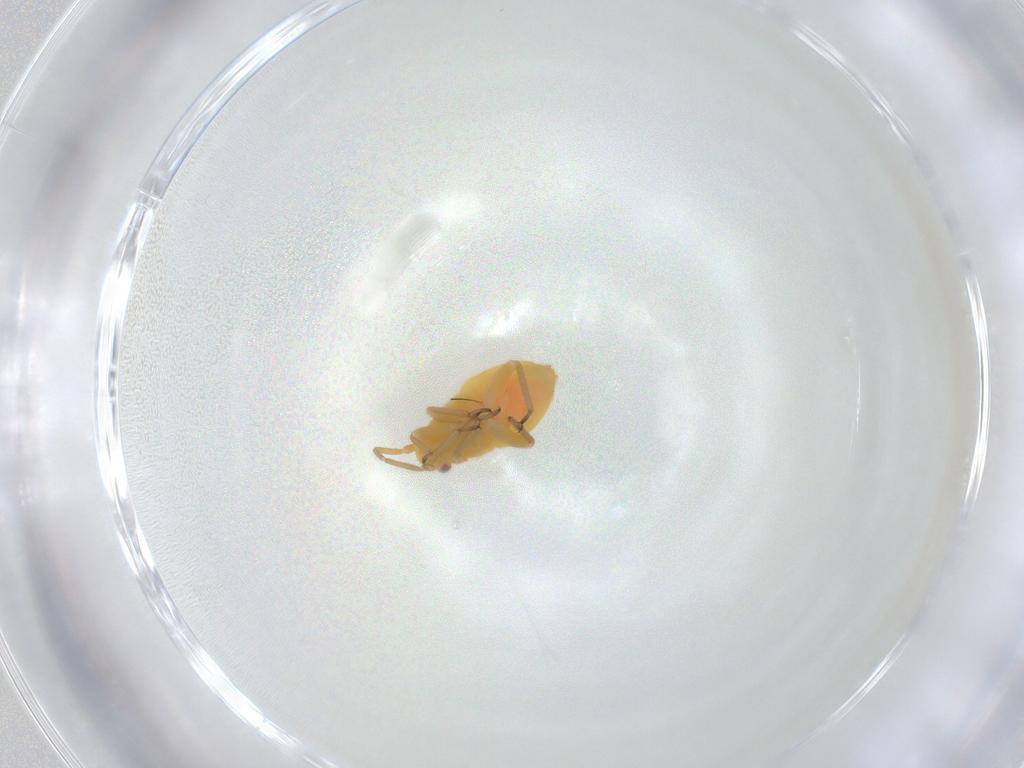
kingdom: Animalia
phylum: Arthropoda
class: Insecta
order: Hemiptera
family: Miridae
